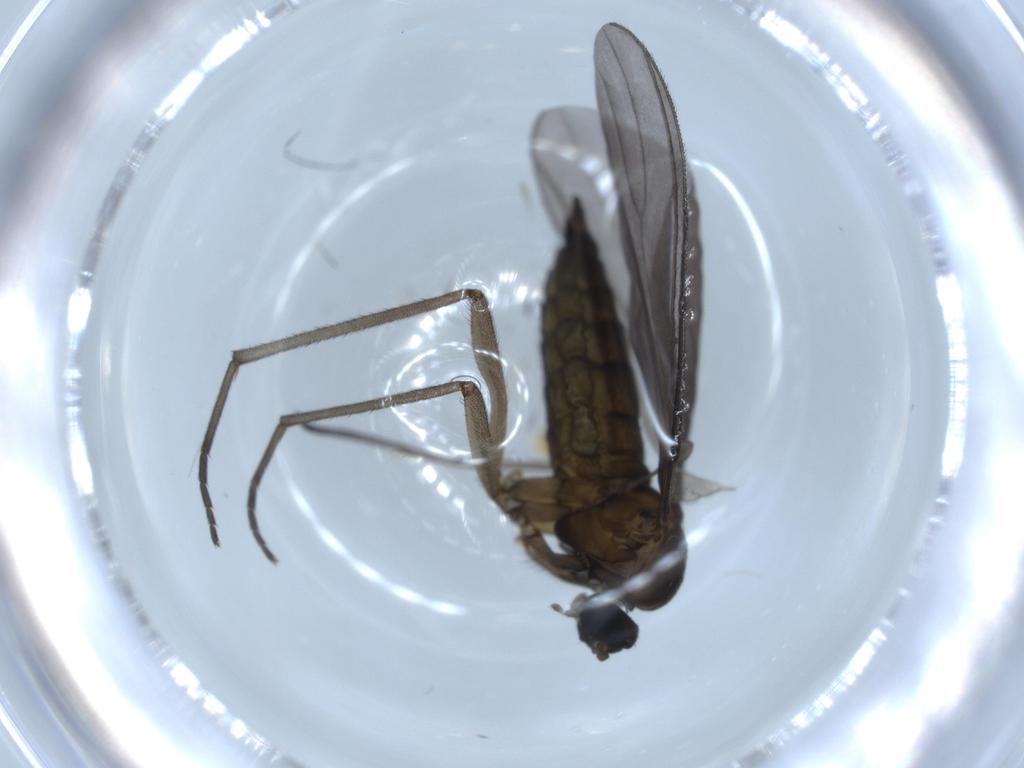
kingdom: Animalia
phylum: Arthropoda
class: Insecta
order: Diptera
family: Sciaridae
